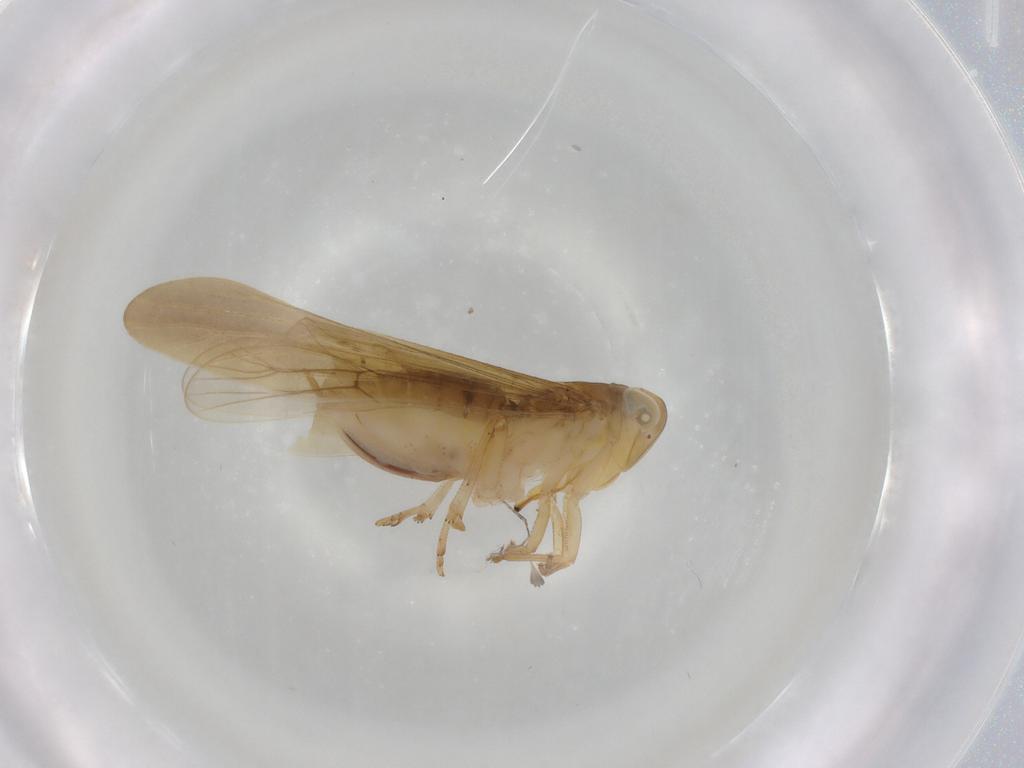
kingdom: Animalia
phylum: Arthropoda
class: Insecta
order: Hemiptera
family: Delphacidae
